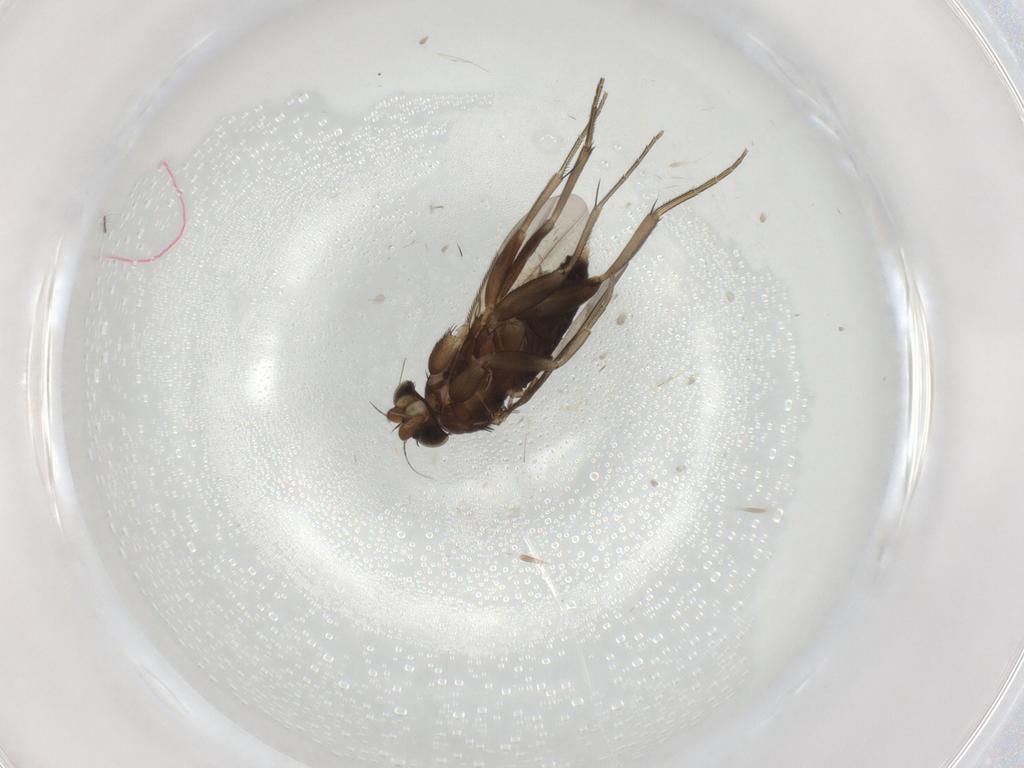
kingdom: Animalia
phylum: Arthropoda
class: Insecta
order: Diptera
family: Phoridae
